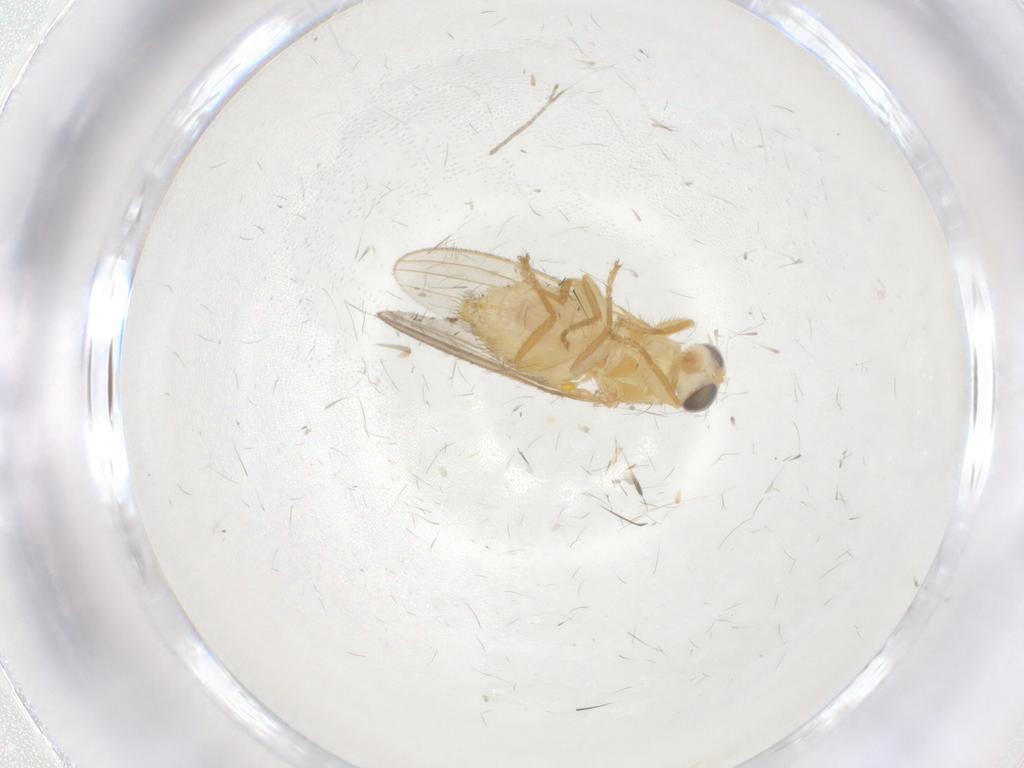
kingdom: Animalia
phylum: Arthropoda
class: Insecta
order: Diptera
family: Chyromyidae
